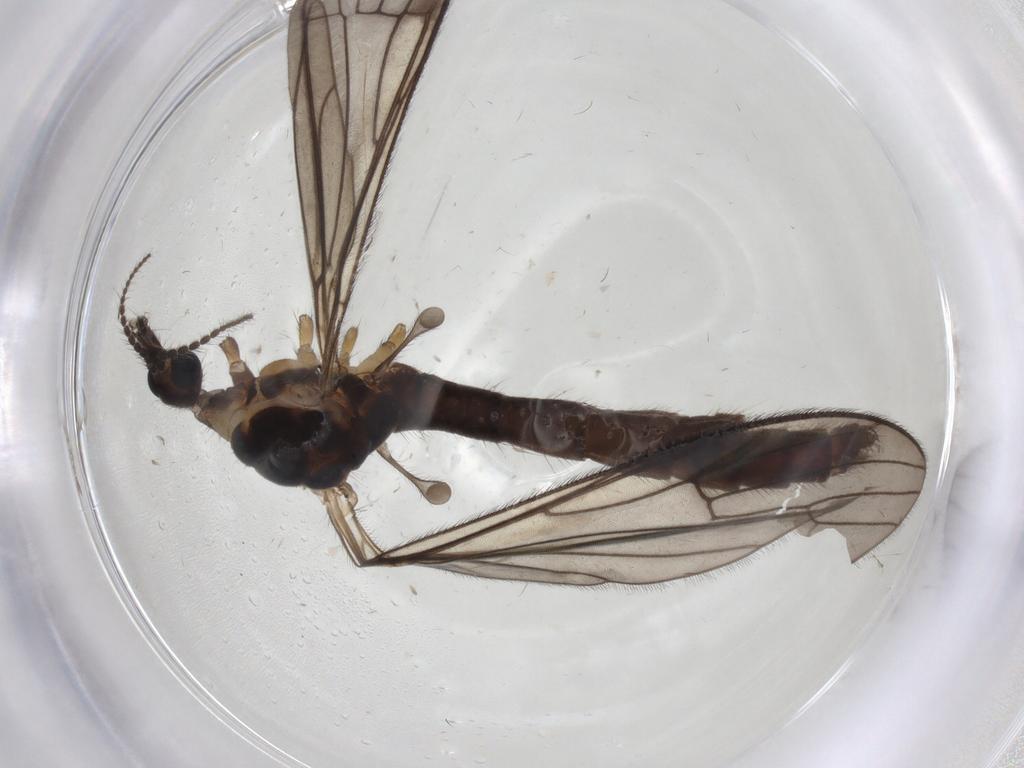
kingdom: Animalia
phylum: Arthropoda
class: Insecta
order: Diptera
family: Limoniidae
